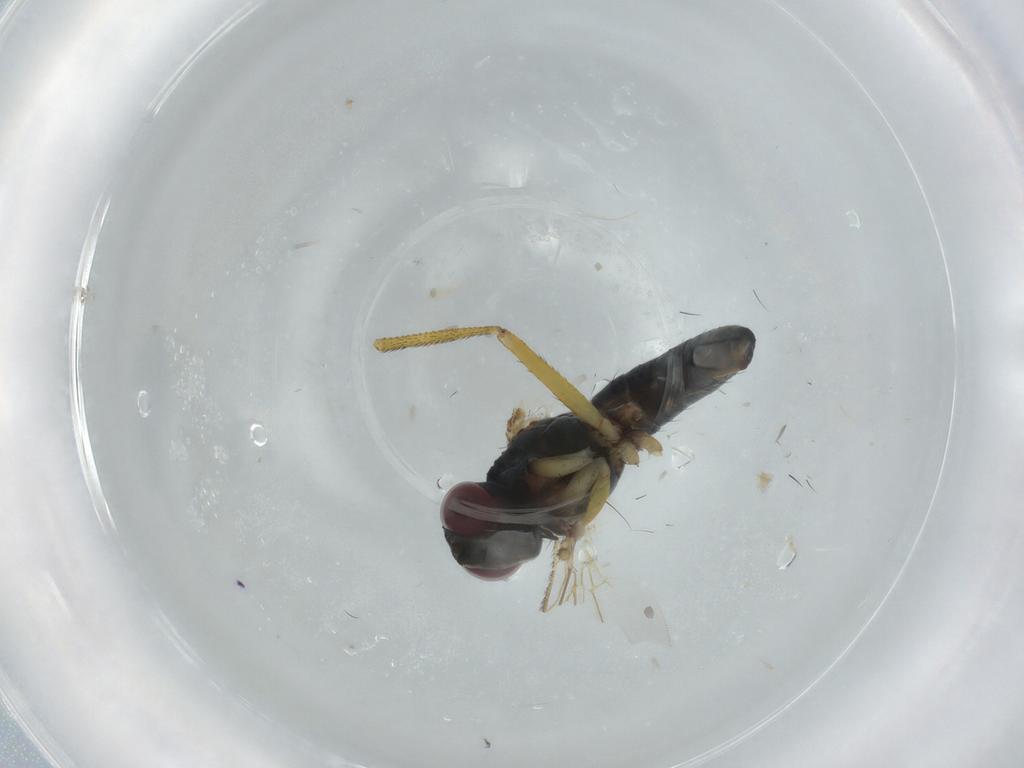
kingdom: Animalia
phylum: Arthropoda
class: Insecta
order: Diptera
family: Muscidae
